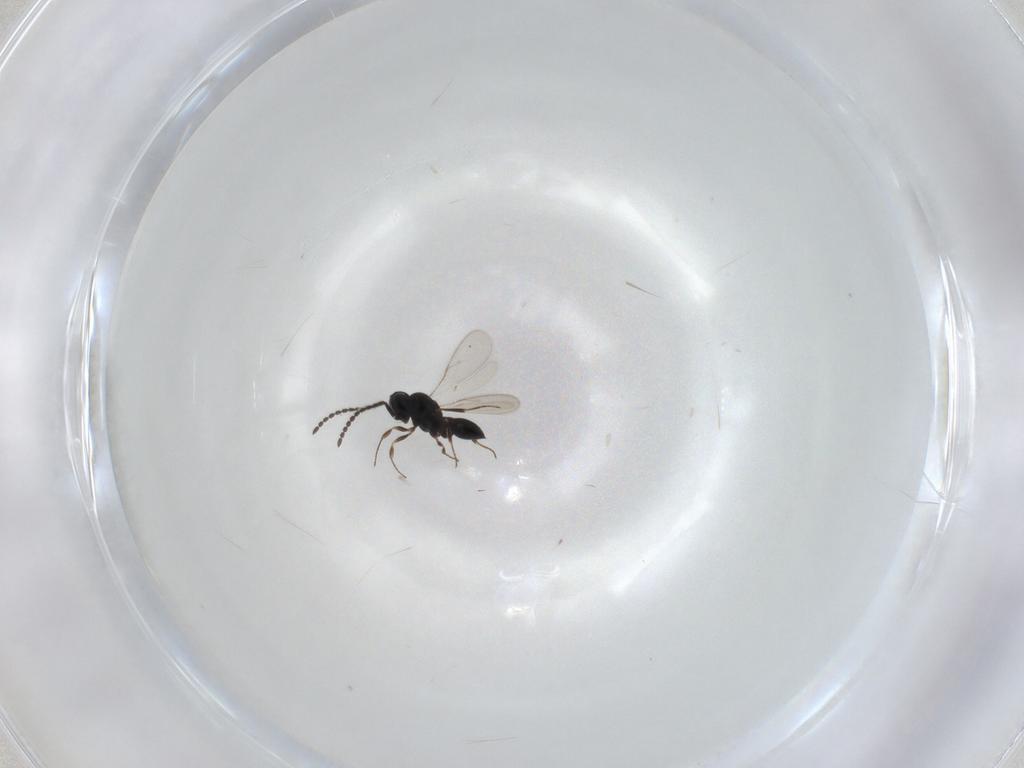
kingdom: Animalia
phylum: Arthropoda
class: Insecta
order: Hymenoptera
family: Scelionidae
